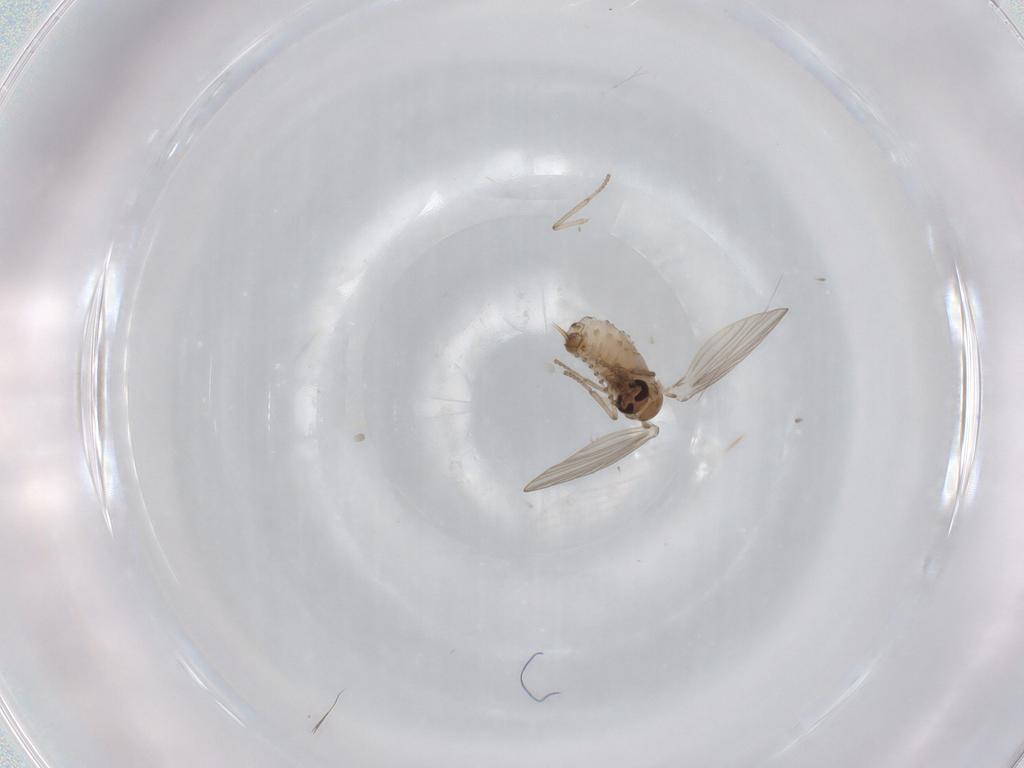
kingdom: Animalia
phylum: Arthropoda
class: Insecta
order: Diptera
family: Psychodidae
